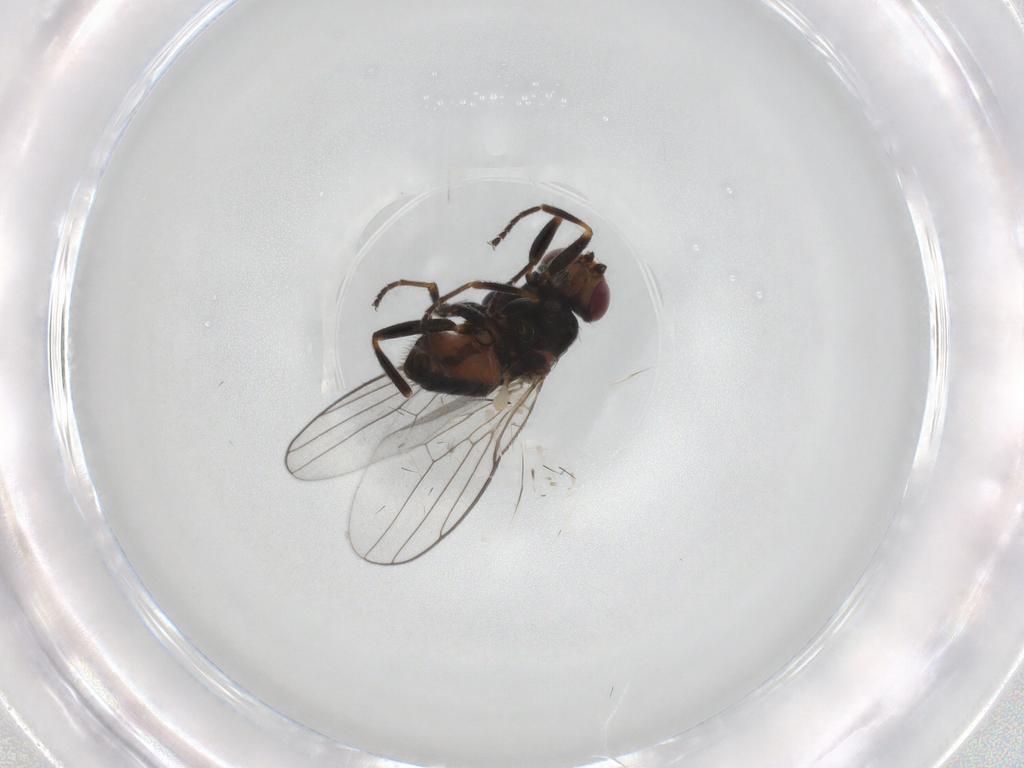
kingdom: Animalia
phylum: Arthropoda
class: Insecta
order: Diptera
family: Chloropidae
